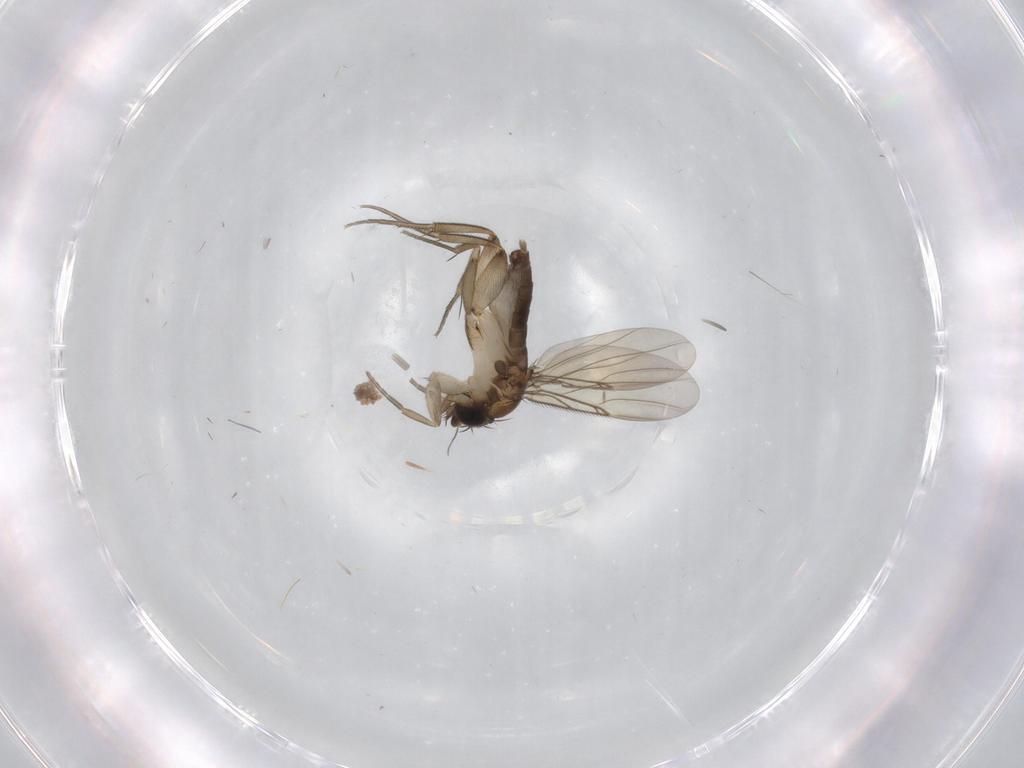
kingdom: Animalia
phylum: Arthropoda
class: Insecta
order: Diptera
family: Phoridae
